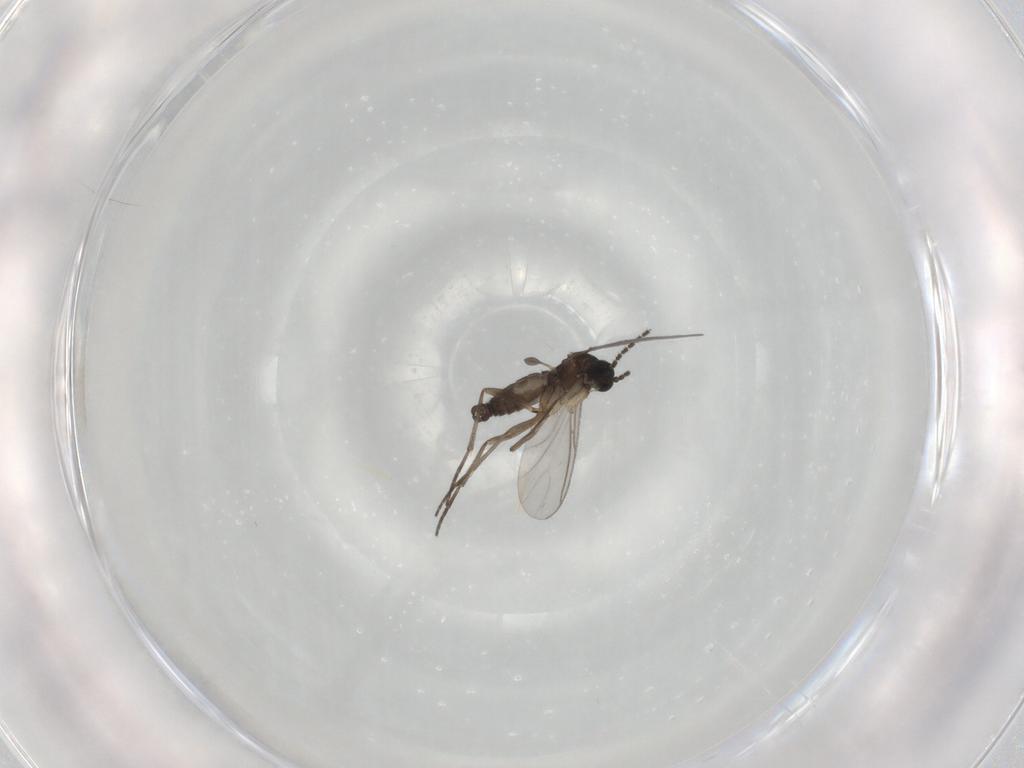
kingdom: Animalia
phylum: Arthropoda
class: Insecta
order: Diptera
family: Sciaridae
